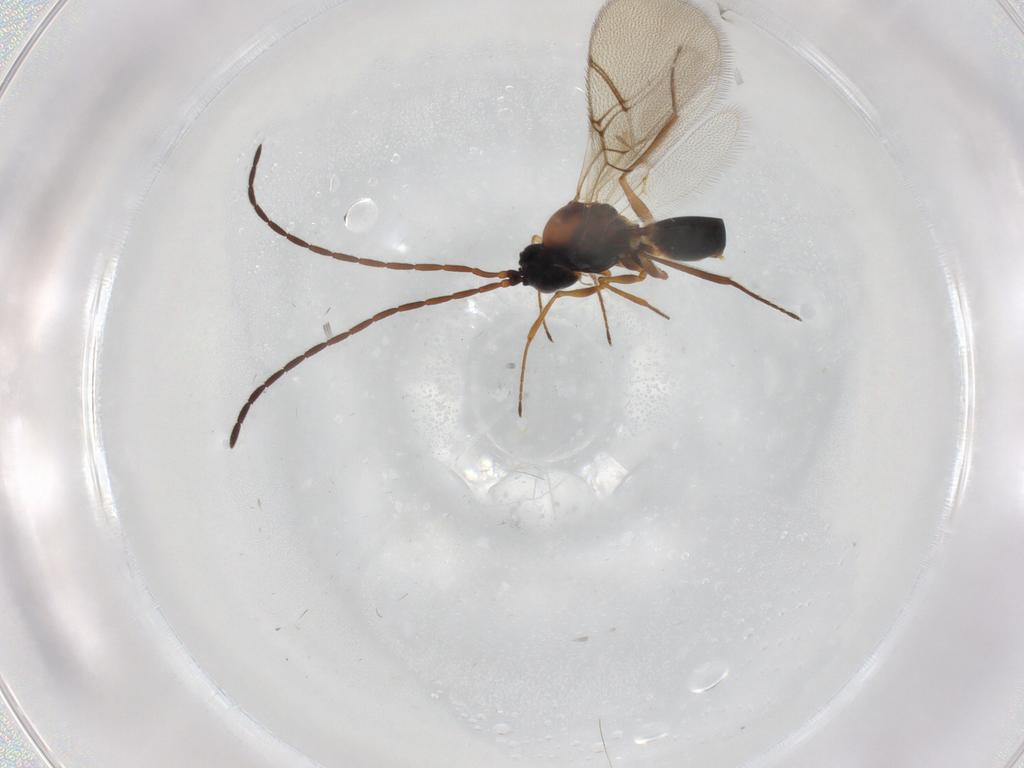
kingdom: Animalia
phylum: Arthropoda
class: Insecta
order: Hymenoptera
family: Figitidae
